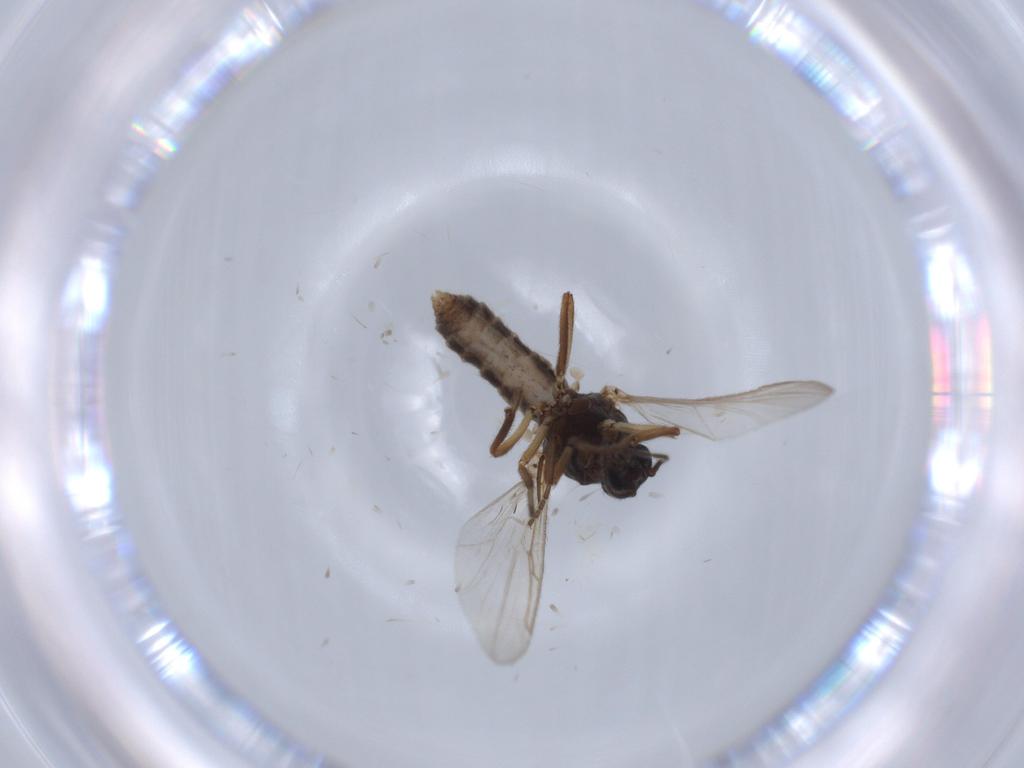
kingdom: Animalia
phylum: Arthropoda
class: Insecta
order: Diptera
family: Ceratopogonidae
